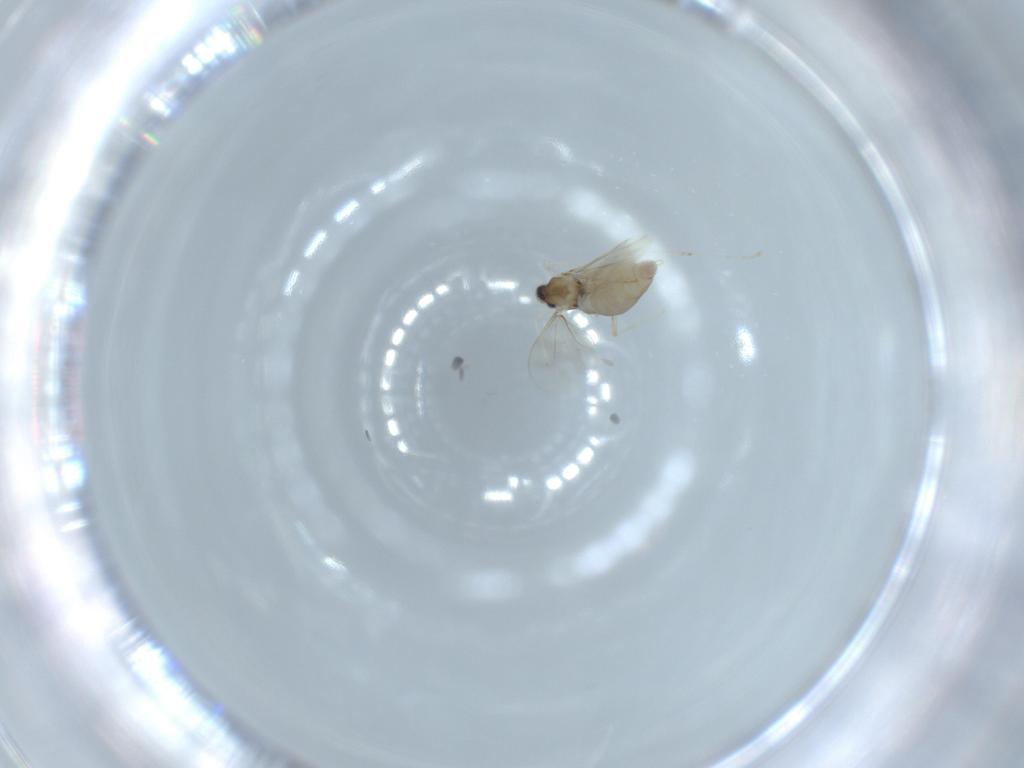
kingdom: Animalia
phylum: Arthropoda
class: Insecta
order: Diptera
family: Cecidomyiidae
